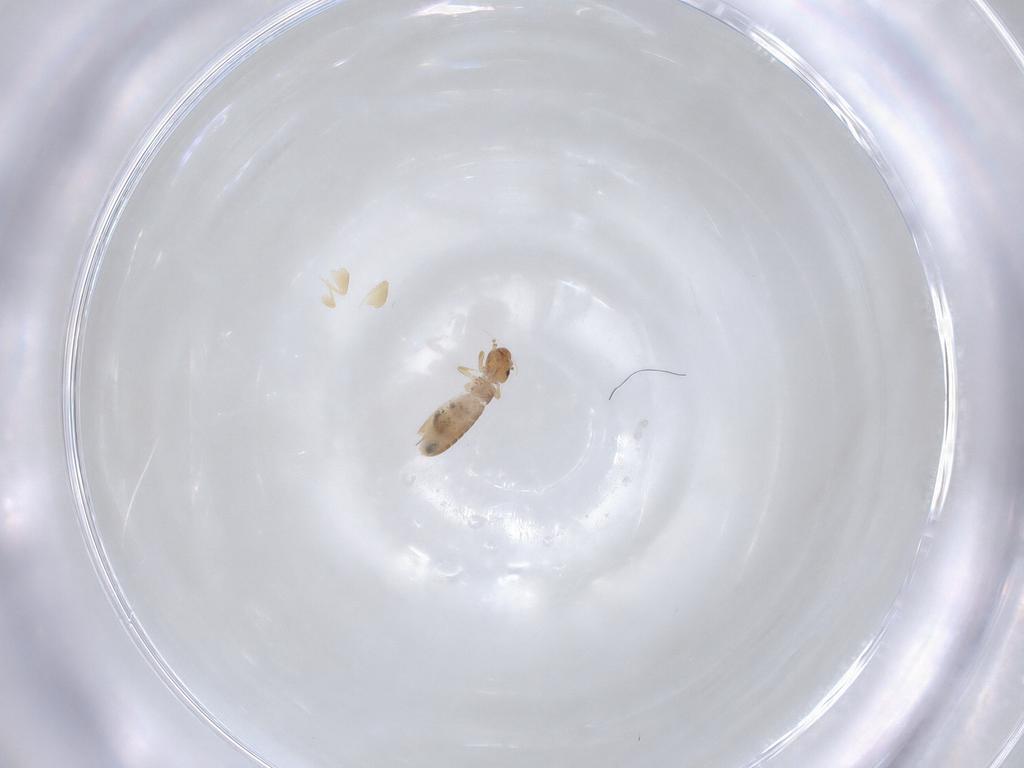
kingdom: Animalia
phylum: Arthropoda
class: Insecta
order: Psocodea
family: Liposcelididae
